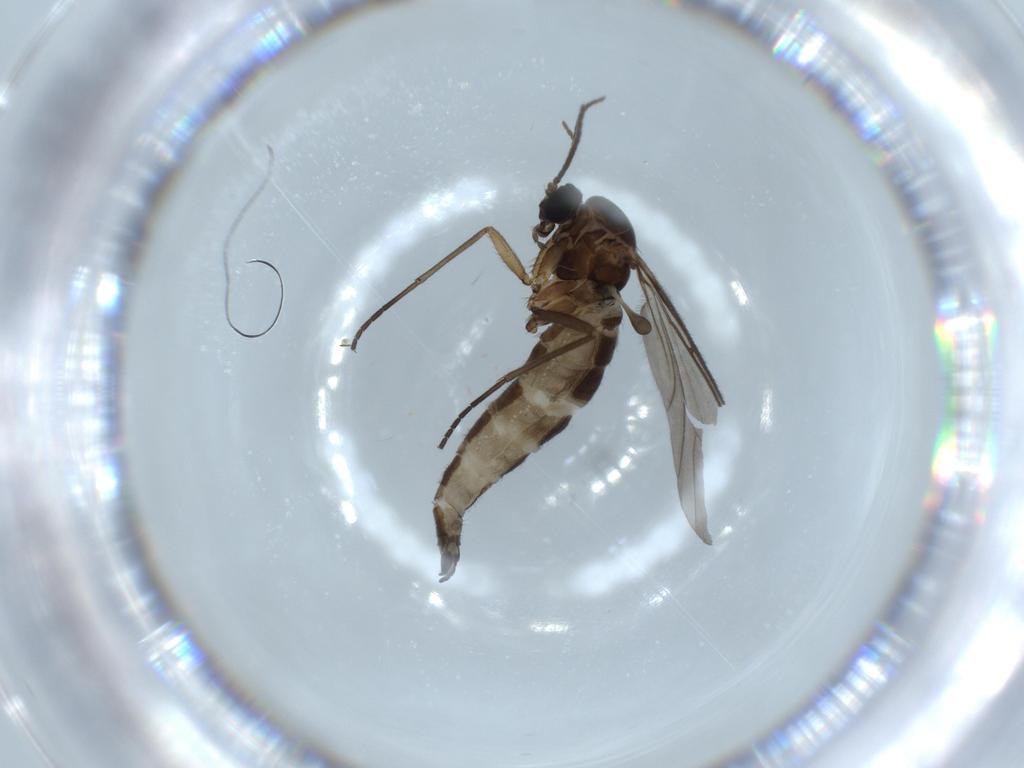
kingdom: Animalia
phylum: Arthropoda
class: Insecta
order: Diptera
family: Sciaridae
